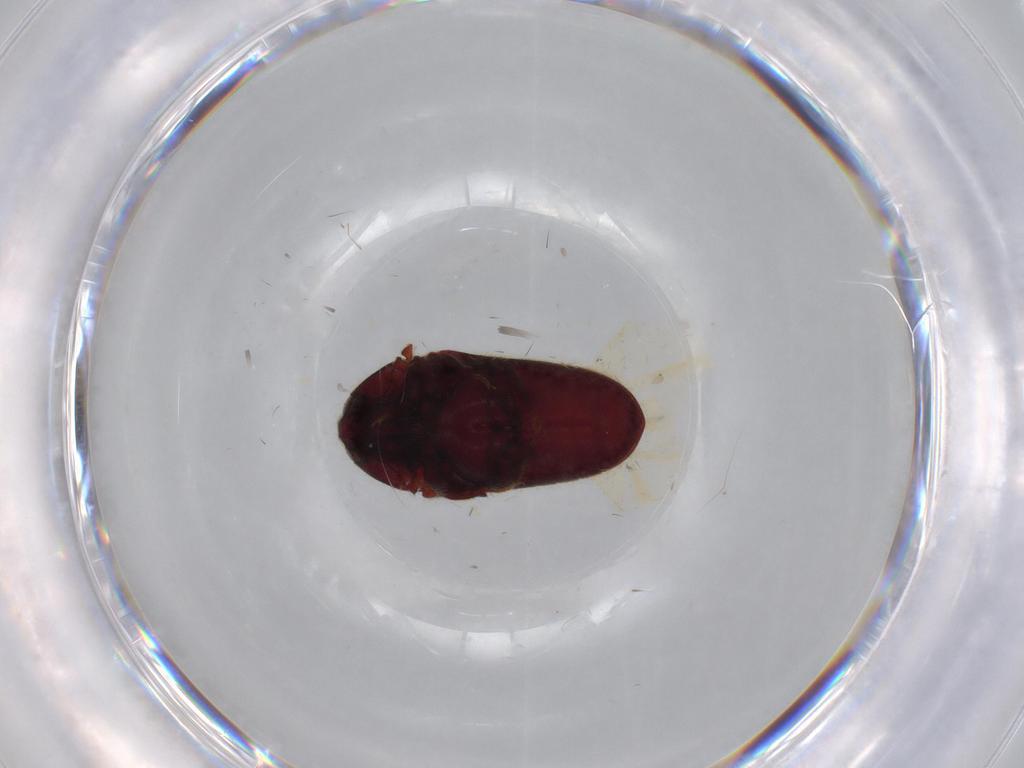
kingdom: Animalia
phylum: Arthropoda
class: Insecta
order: Coleoptera
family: Throscidae
